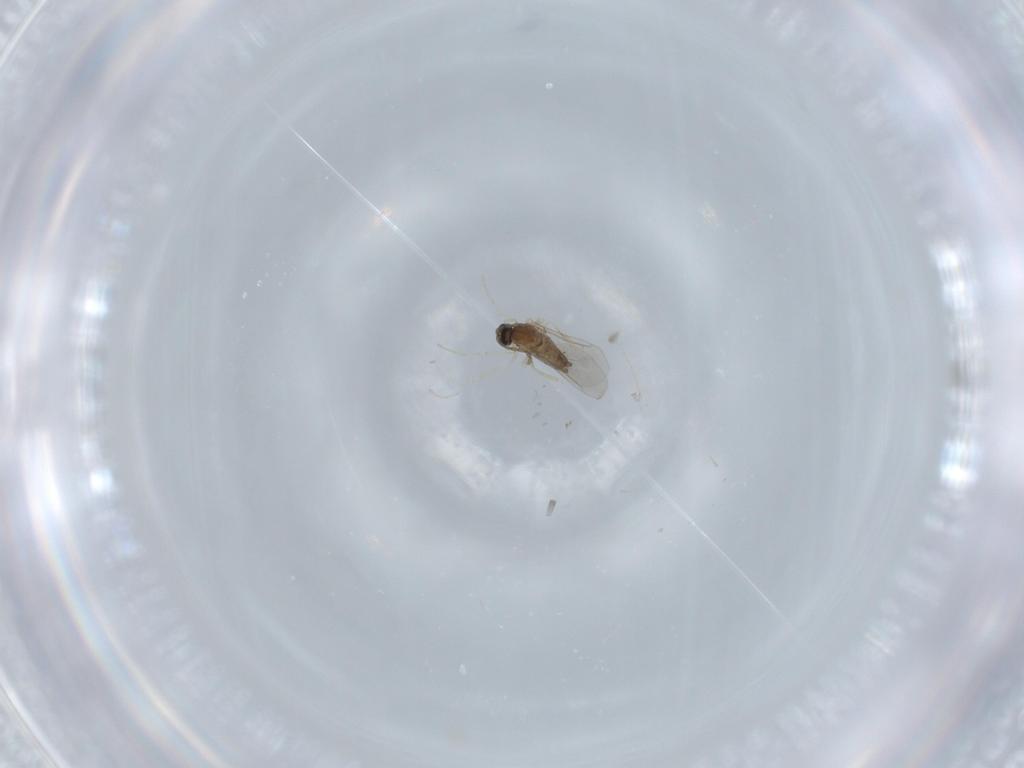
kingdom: Animalia
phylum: Arthropoda
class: Insecta
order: Diptera
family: Cecidomyiidae
